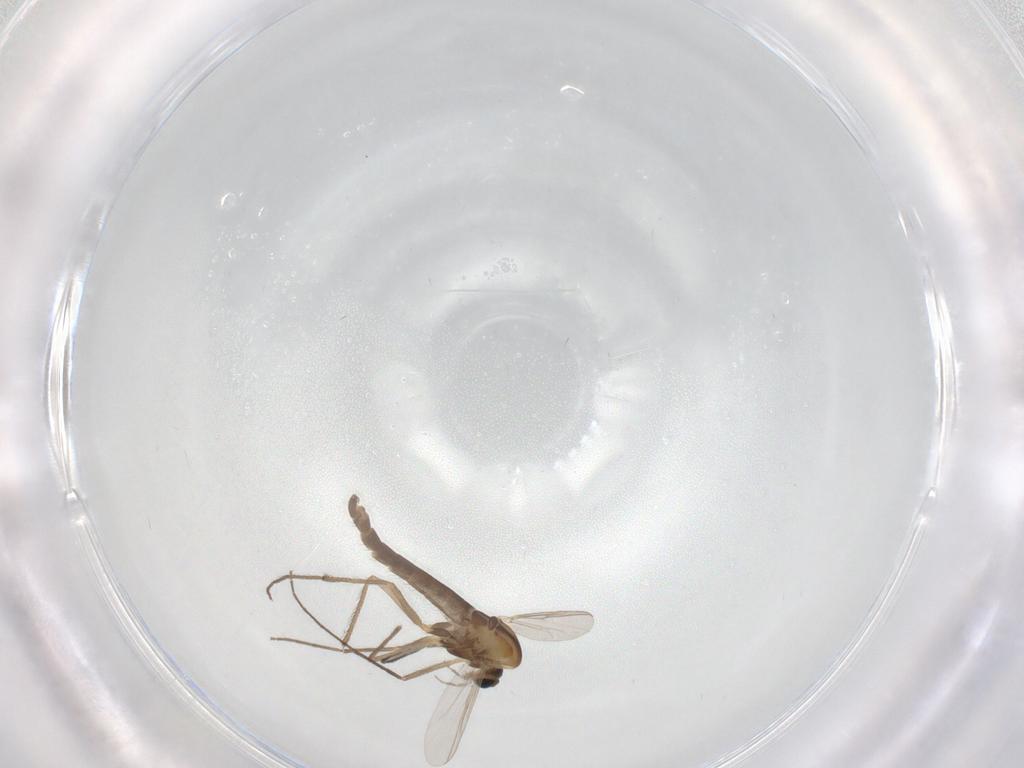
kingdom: Animalia
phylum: Arthropoda
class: Insecta
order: Diptera
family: Chironomidae
